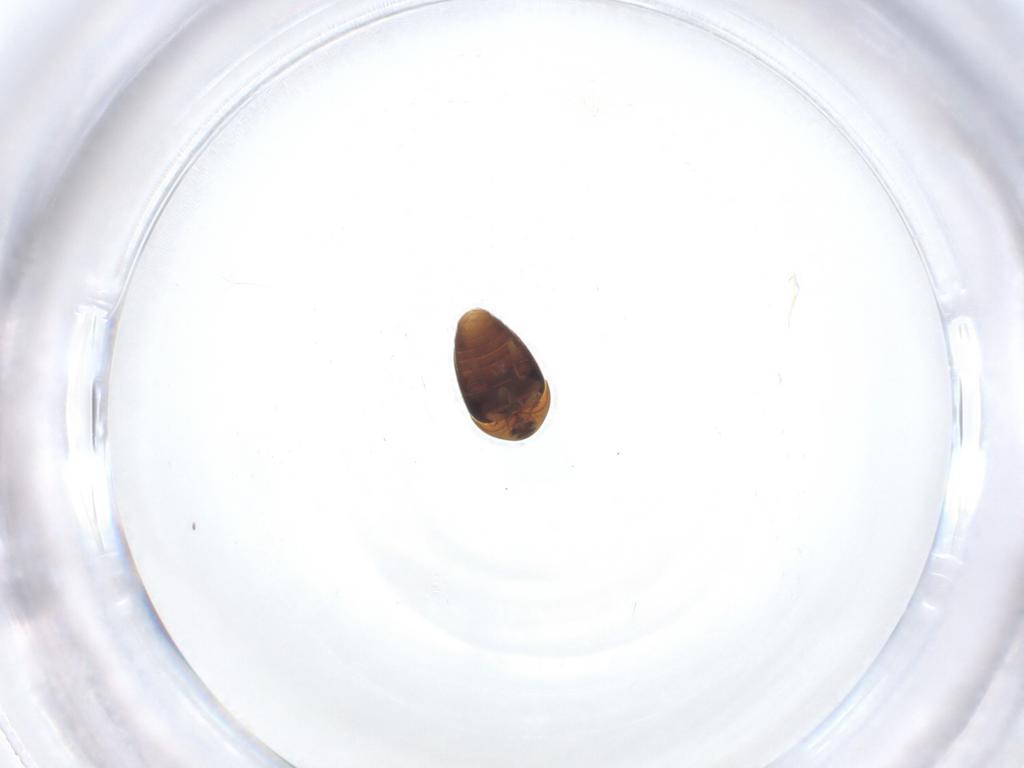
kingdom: Animalia
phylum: Arthropoda
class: Insecta
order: Coleoptera
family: Corylophidae
